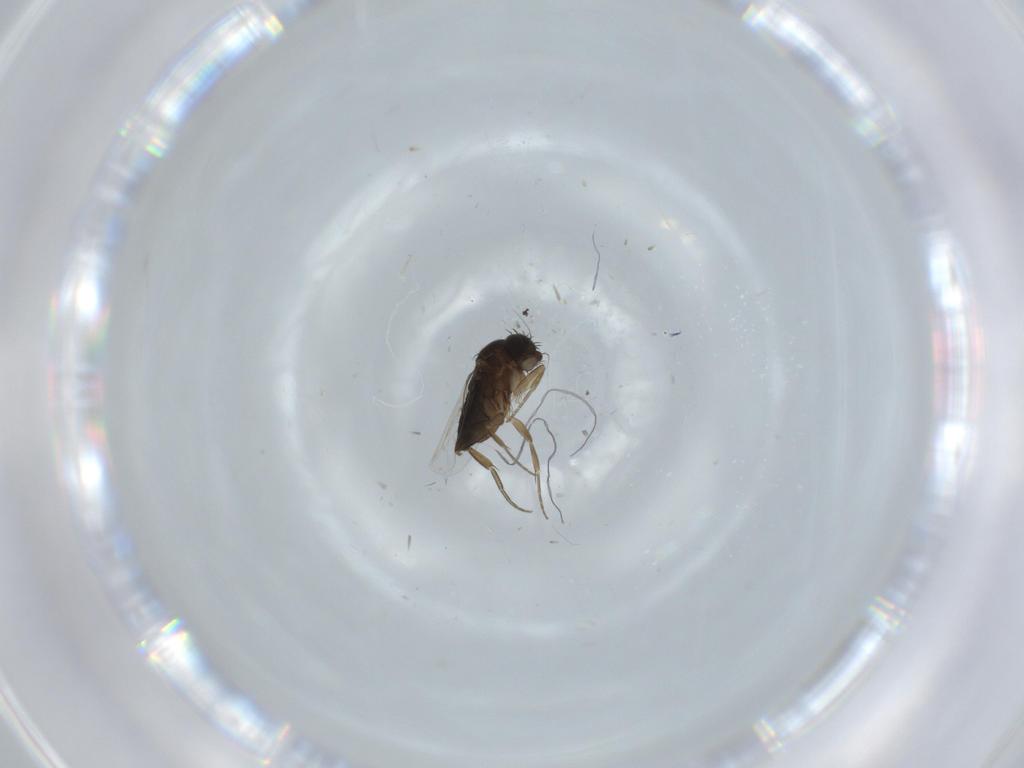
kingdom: Animalia
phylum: Arthropoda
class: Insecta
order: Diptera
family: Phoridae
